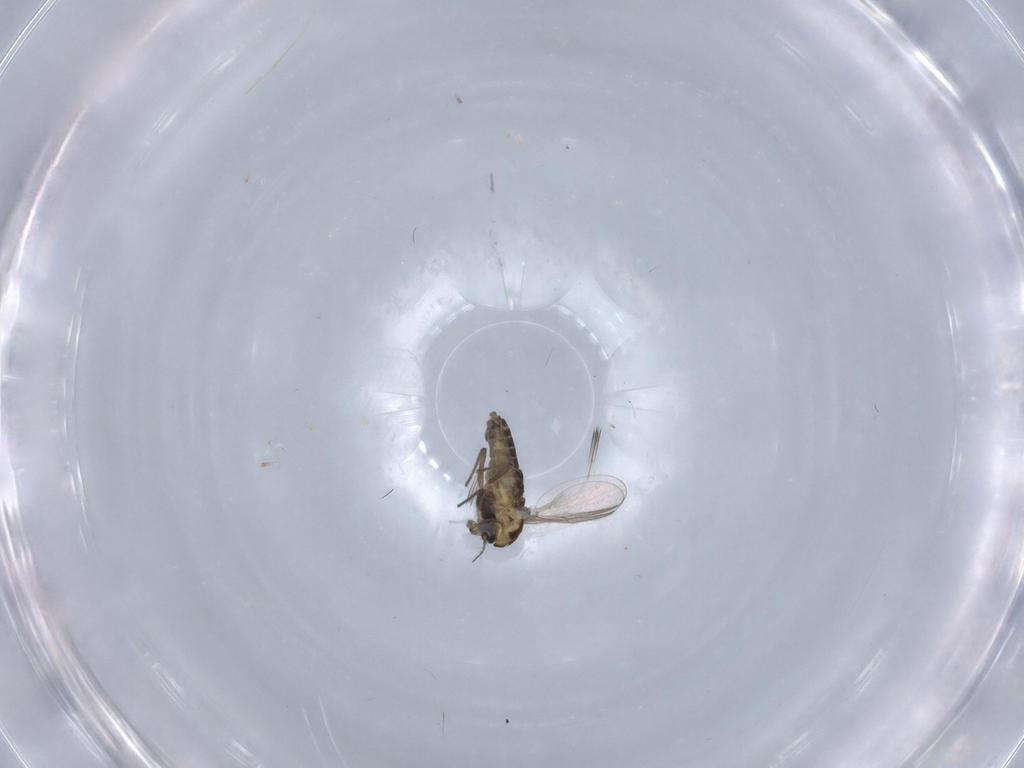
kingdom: Animalia
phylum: Arthropoda
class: Insecta
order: Diptera
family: Chironomidae
